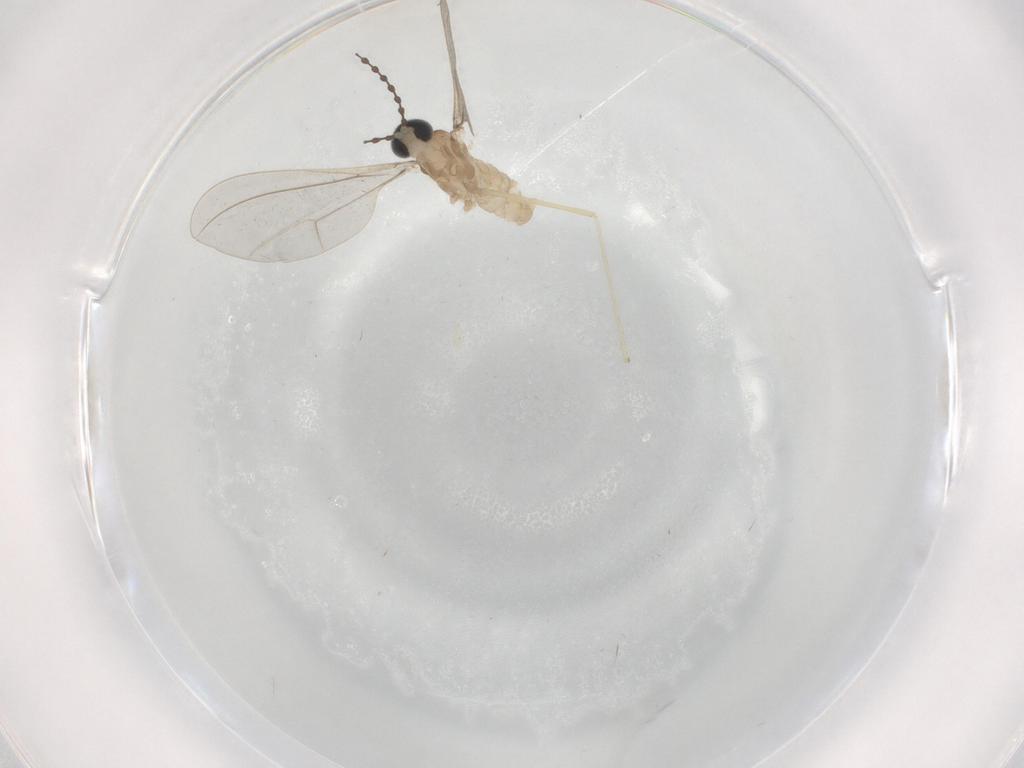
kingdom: Animalia
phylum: Arthropoda
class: Insecta
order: Diptera
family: Cecidomyiidae
